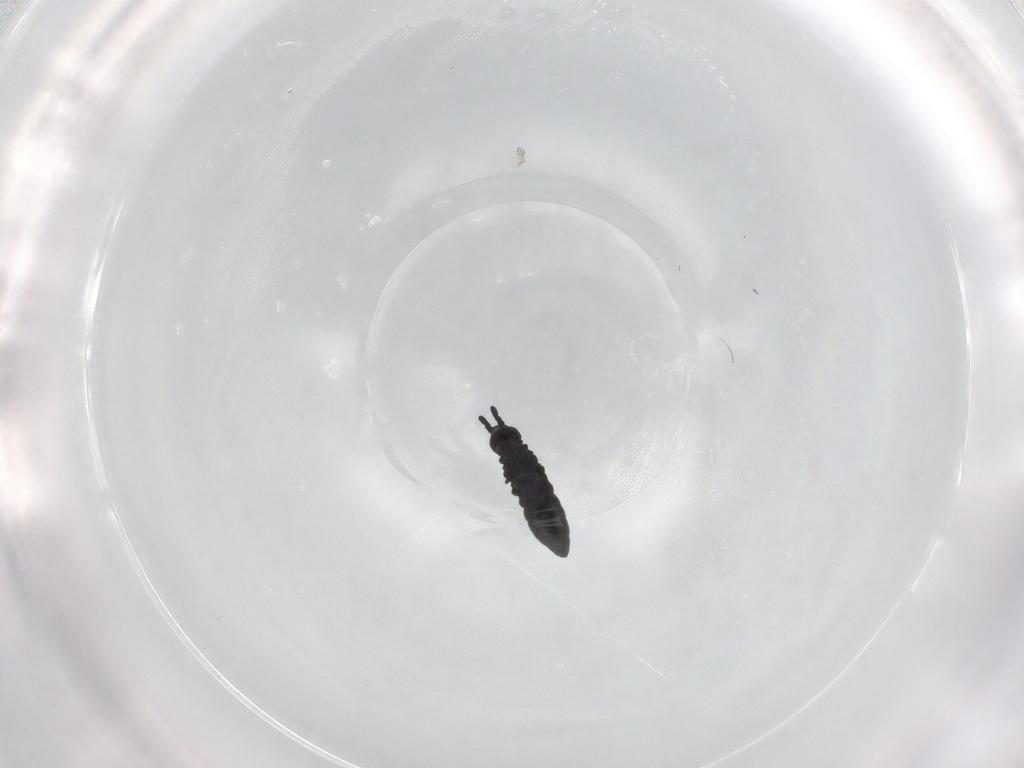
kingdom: Animalia
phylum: Arthropoda
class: Collembola
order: Poduromorpha
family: Hypogastruridae
